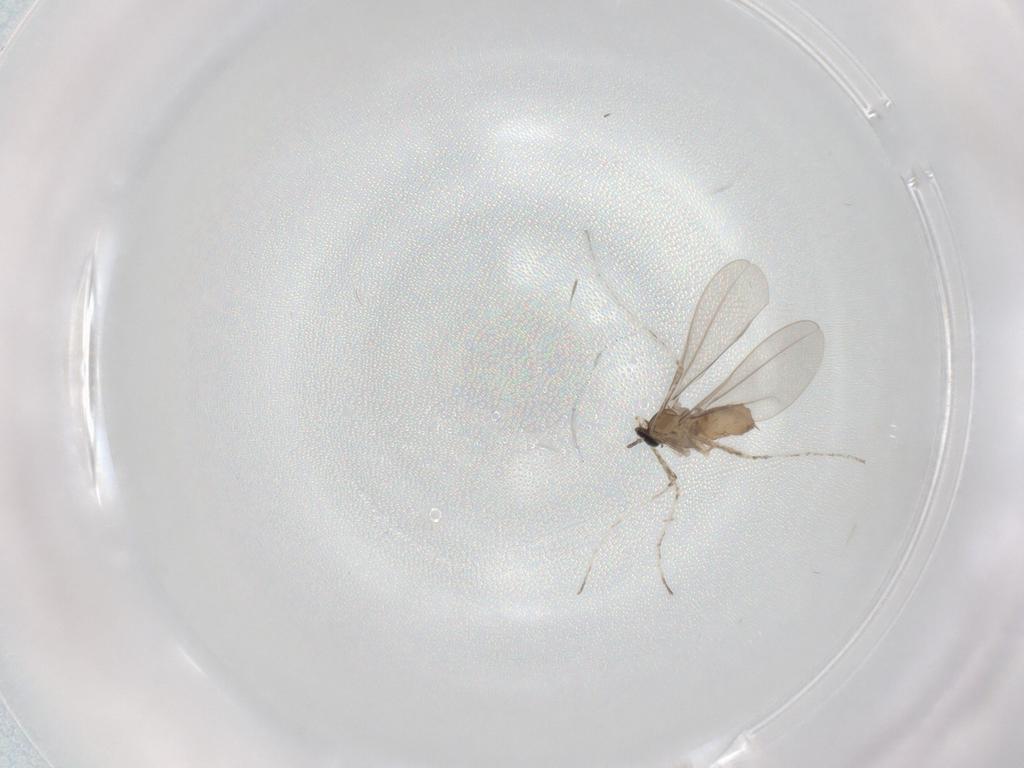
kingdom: Animalia
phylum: Arthropoda
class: Insecta
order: Diptera
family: Cecidomyiidae
